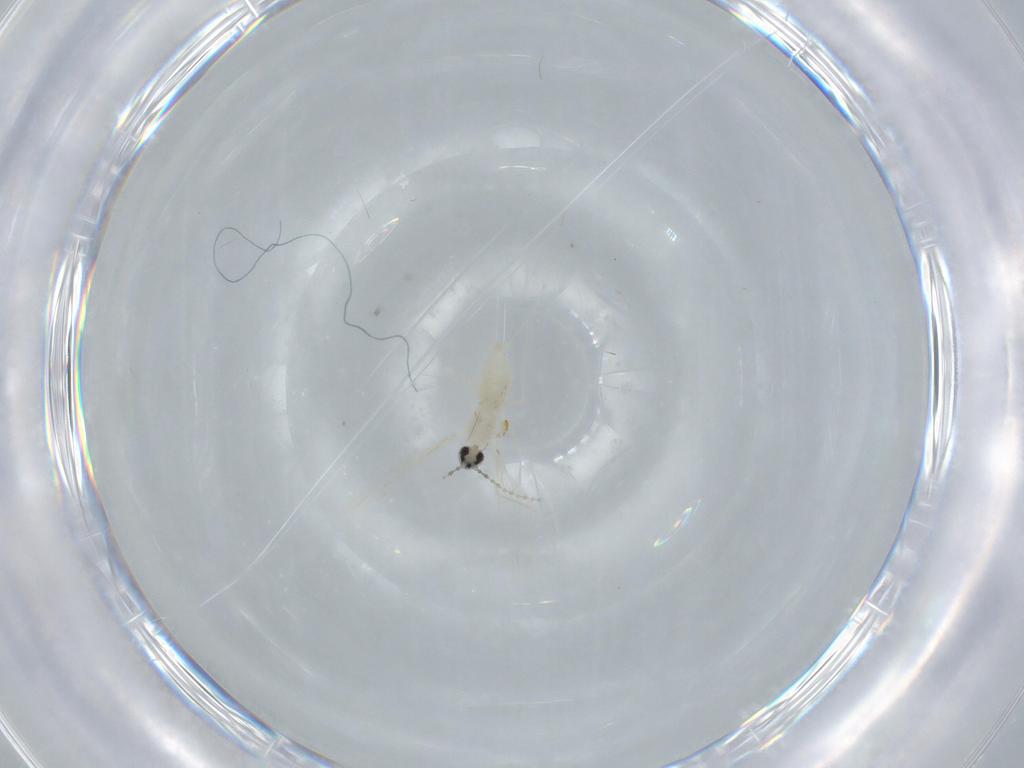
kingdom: Animalia
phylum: Arthropoda
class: Insecta
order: Diptera
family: Cecidomyiidae
